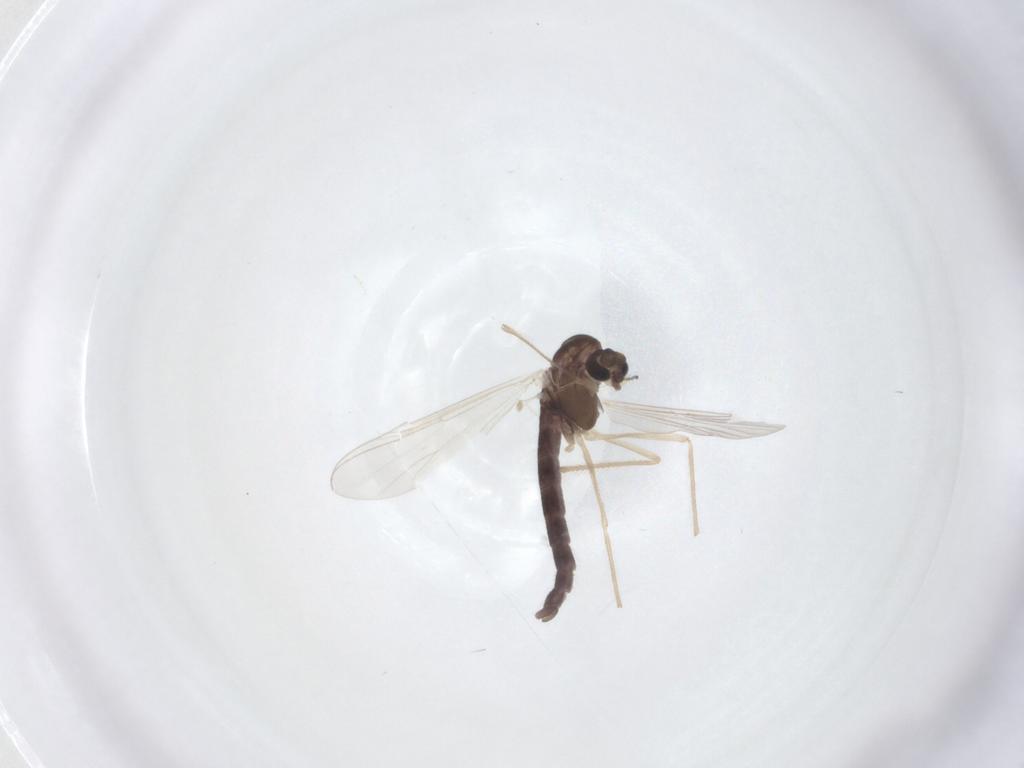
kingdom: Animalia
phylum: Arthropoda
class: Insecta
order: Diptera
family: Chironomidae
